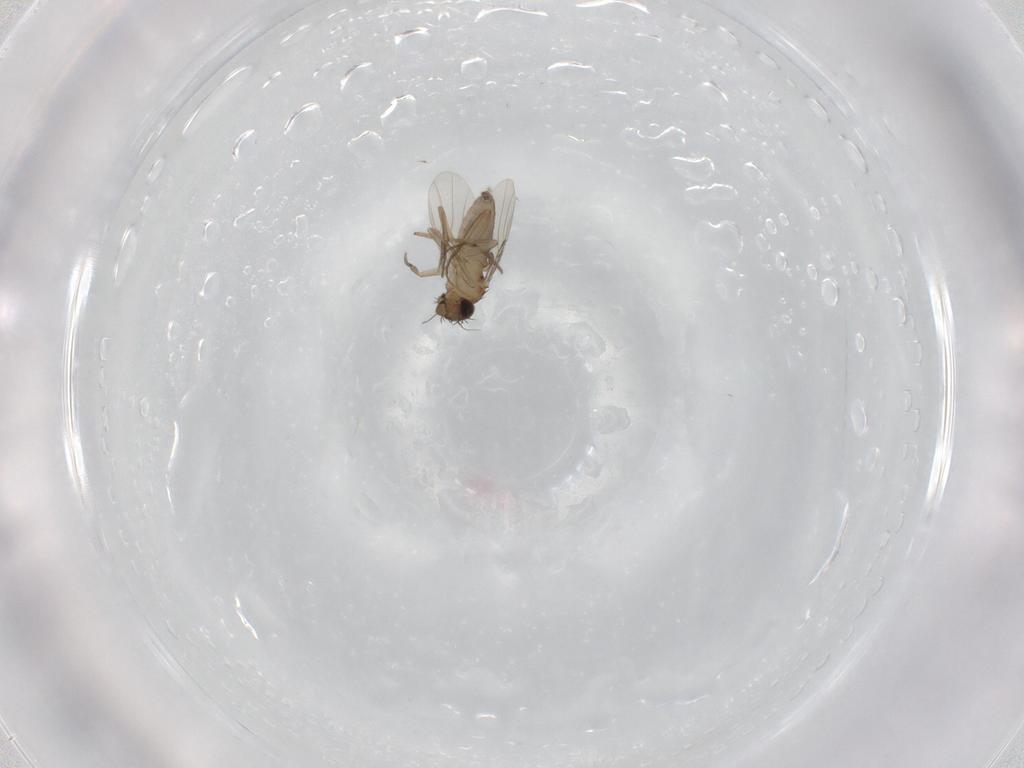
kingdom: Animalia
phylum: Arthropoda
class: Insecta
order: Diptera
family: Phoridae
